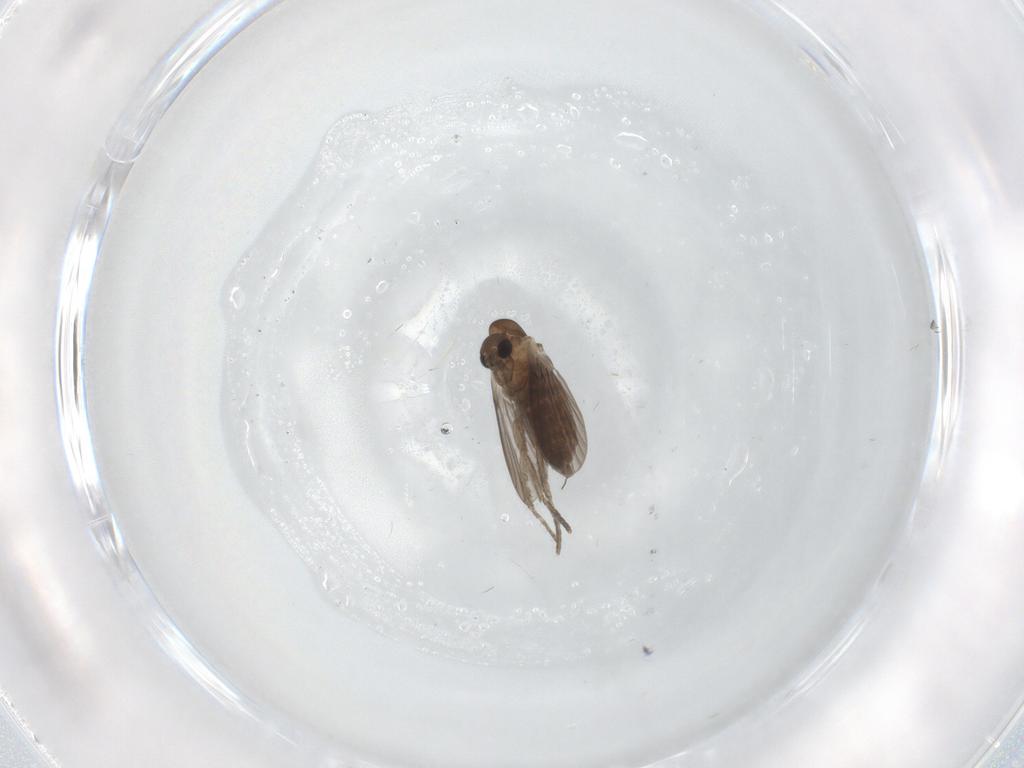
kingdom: Animalia
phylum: Arthropoda
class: Insecta
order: Diptera
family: Chironomidae
